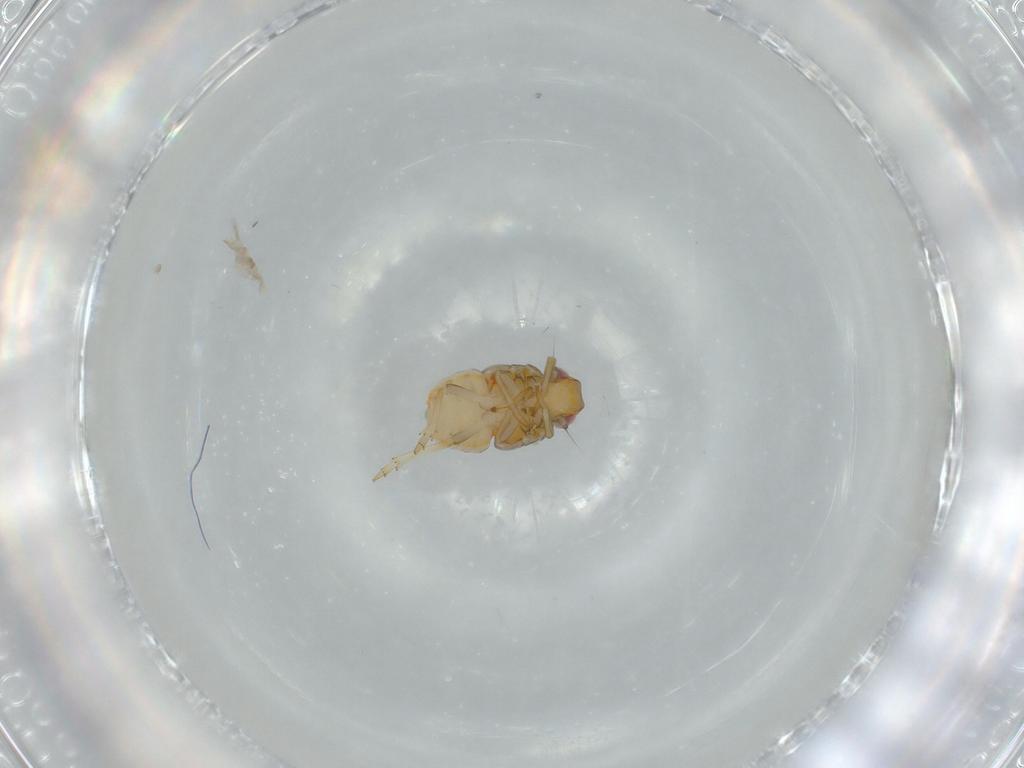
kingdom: Animalia
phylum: Arthropoda
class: Insecta
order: Hemiptera
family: Issidae
